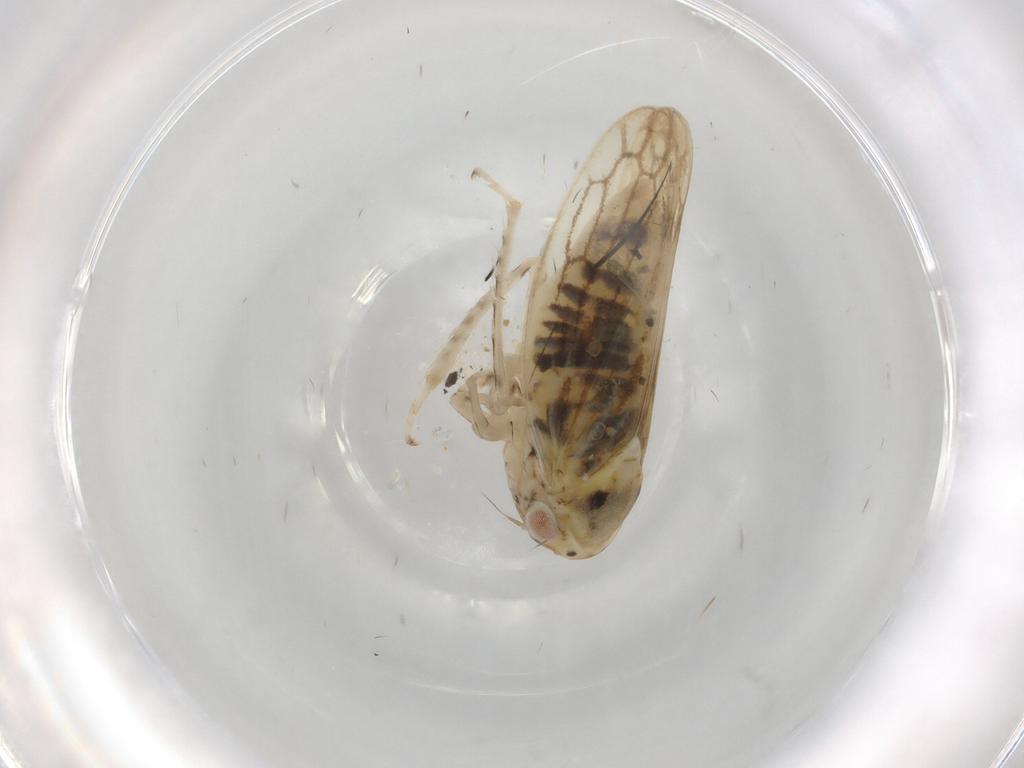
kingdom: Animalia
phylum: Arthropoda
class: Insecta
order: Hemiptera
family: Cicadellidae
